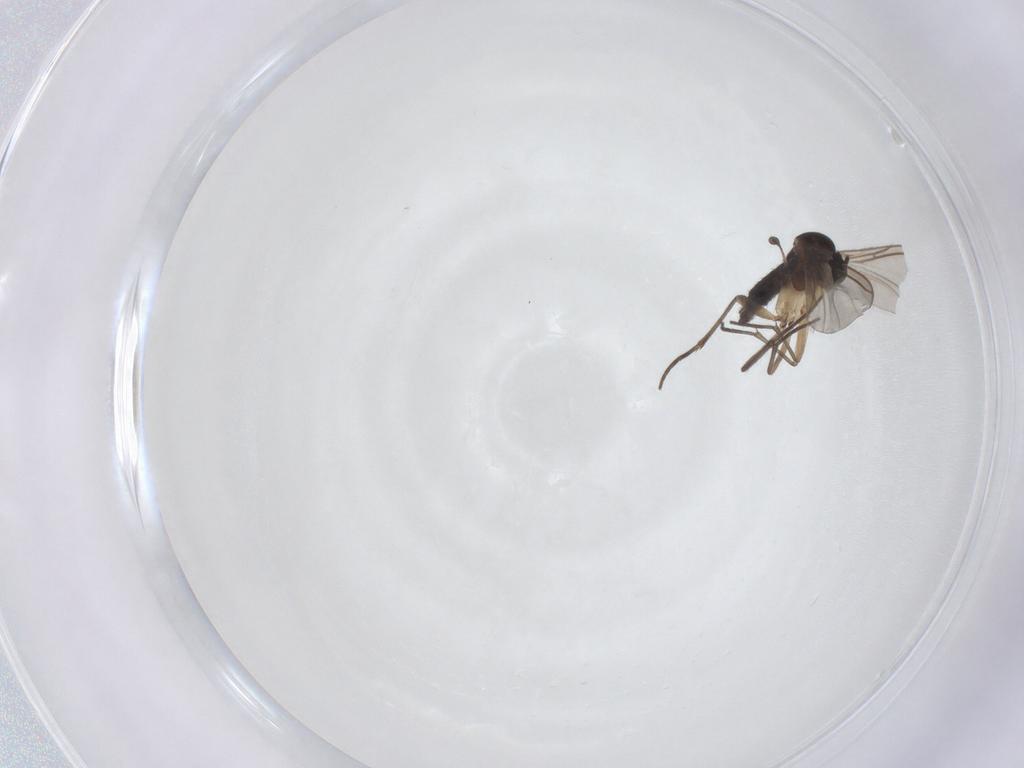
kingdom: Animalia
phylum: Arthropoda
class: Insecta
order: Diptera
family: Sciaridae
